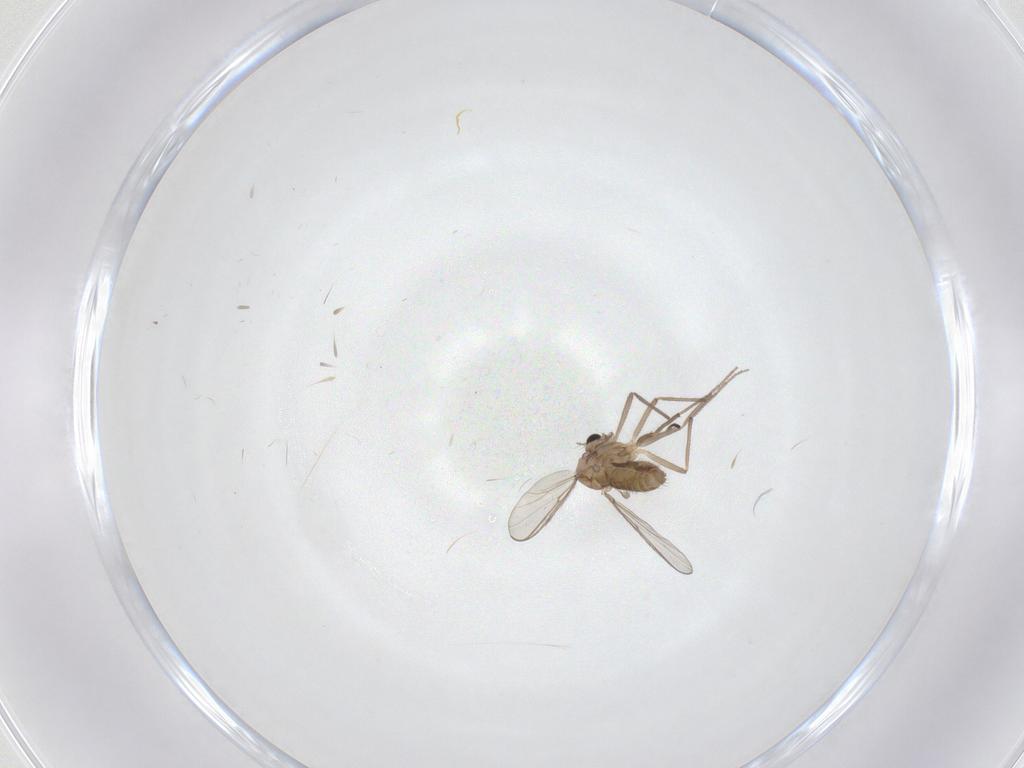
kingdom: Animalia
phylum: Arthropoda
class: Insecta
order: Diptera
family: Chironomidae
